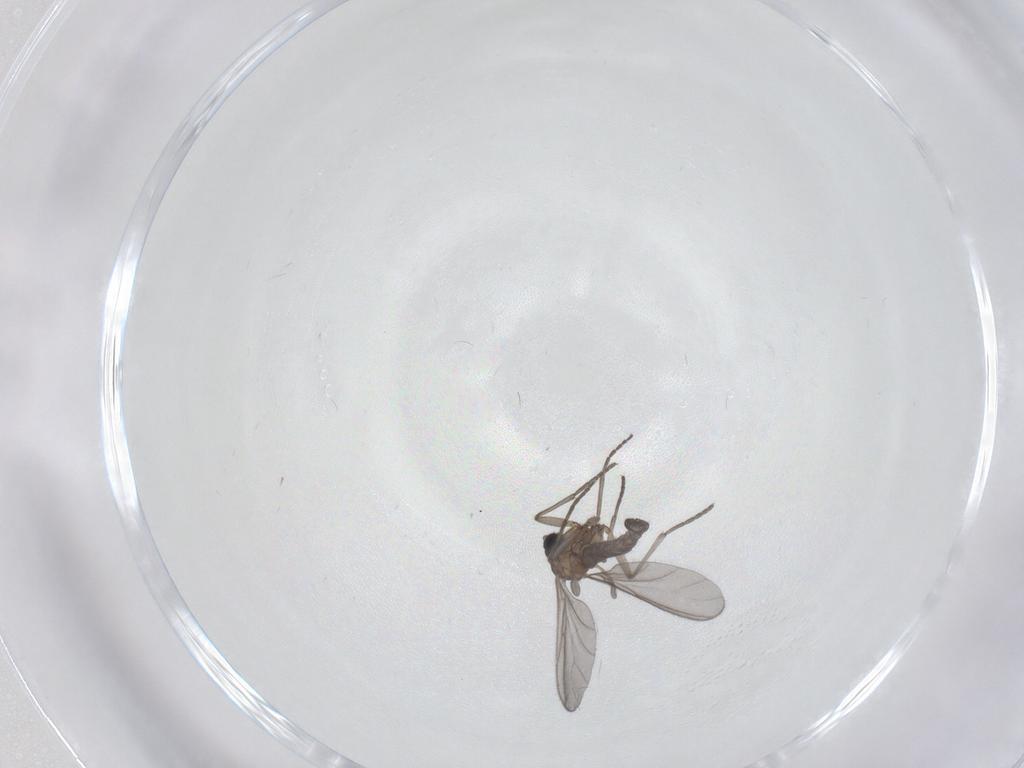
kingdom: Animalia
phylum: Arthropoda
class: Insecta
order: Diptera
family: Sciaridae
